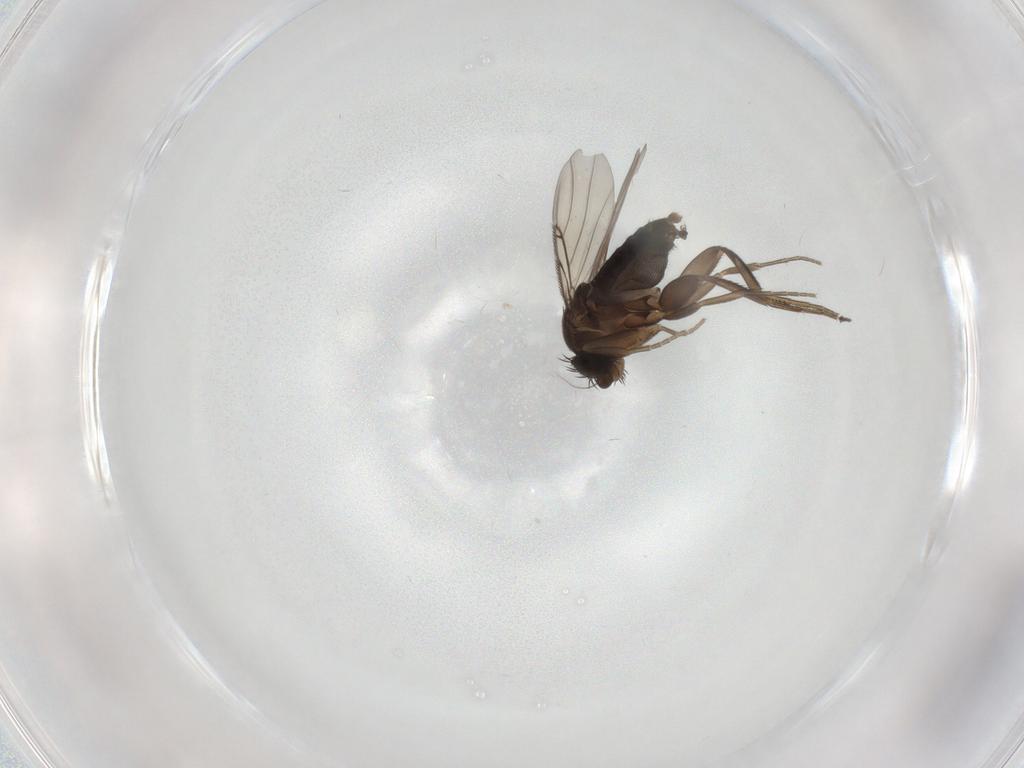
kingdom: Animalia
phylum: Arthropoda
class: Insecta
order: Diptera
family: Phoridae
